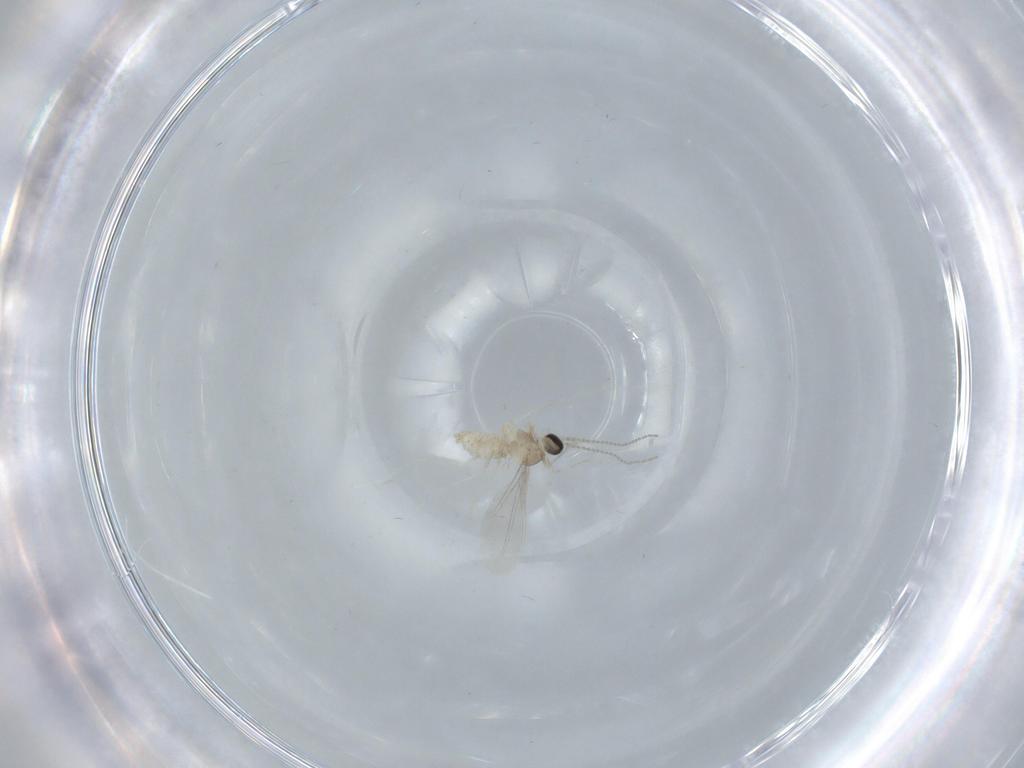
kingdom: Animalia
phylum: Arthropoda
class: Insecta
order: Diptera
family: Cecidomyiidae
